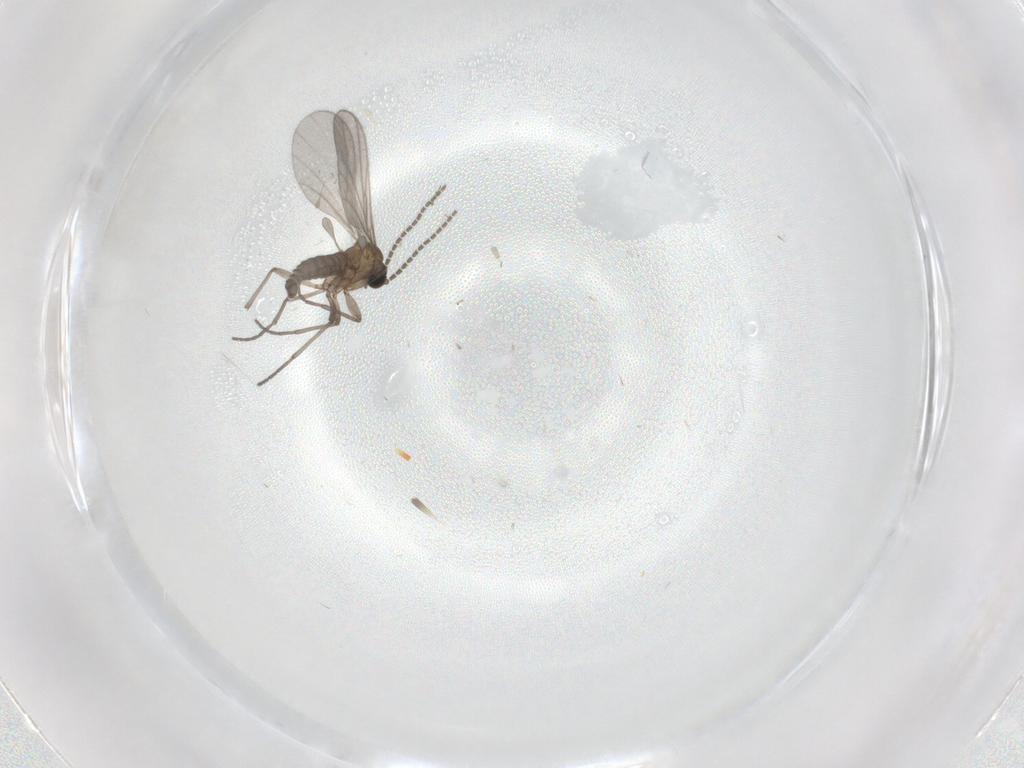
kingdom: Animalia
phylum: Arthropoda
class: Insecta
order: Diptera
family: Sciaridae
